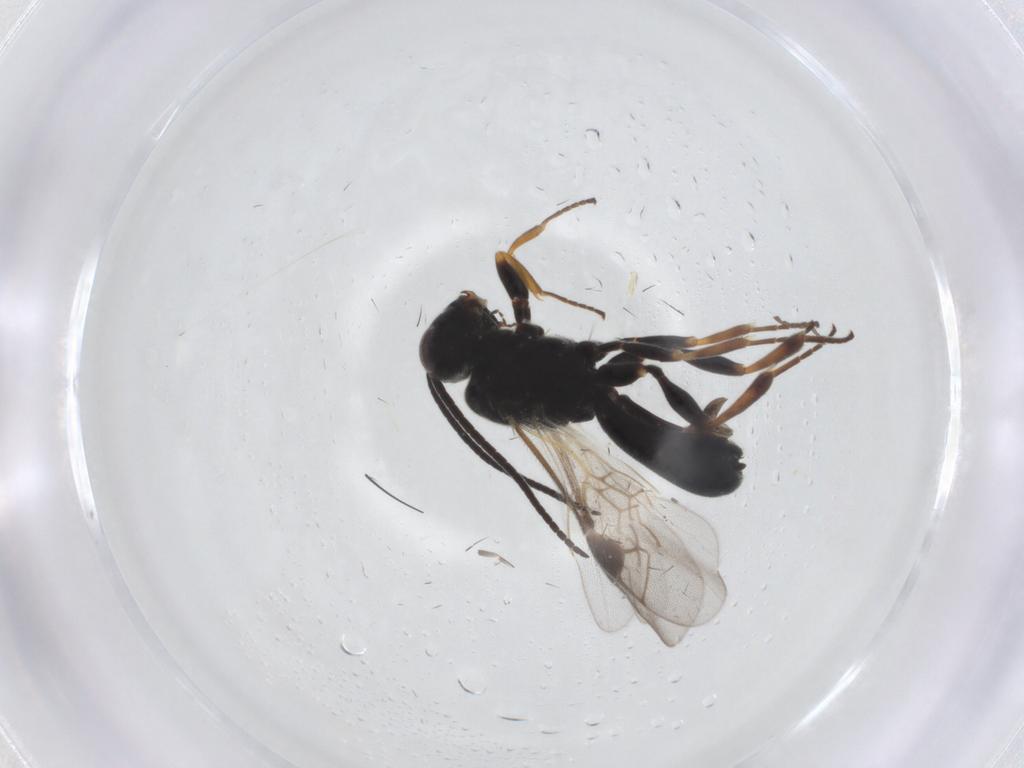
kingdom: Animalia
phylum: Arthropoda
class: Insecta
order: Hymenoptera
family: Braconidae
